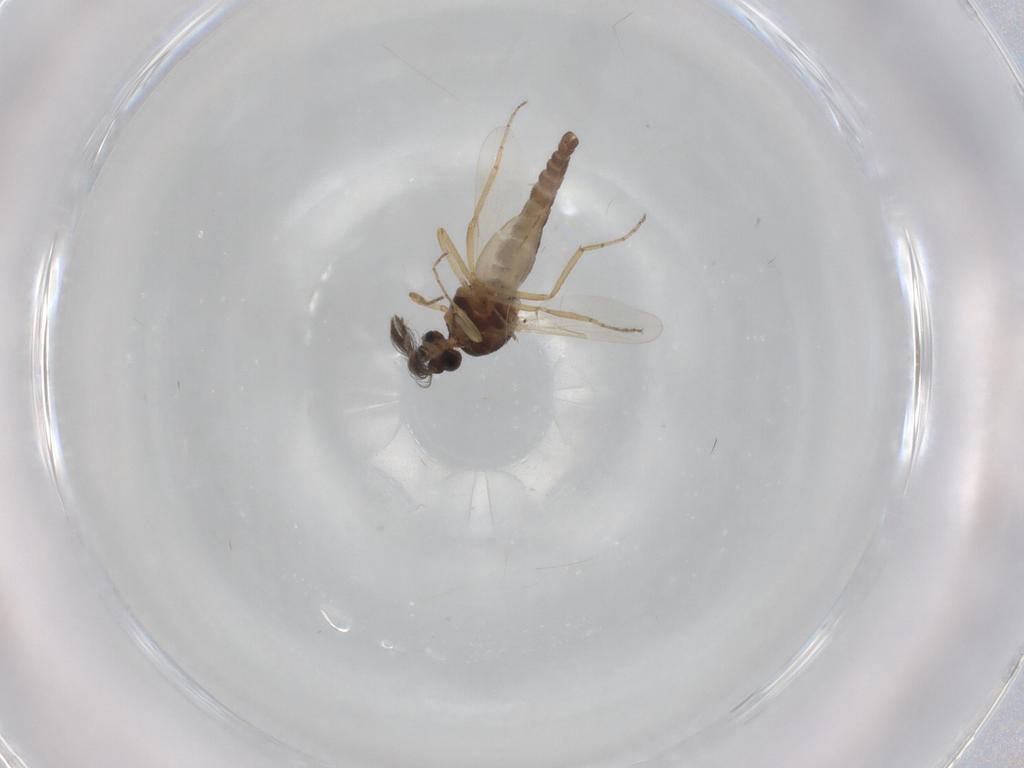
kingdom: Animalia
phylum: Arthropoda
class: Insecta
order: Diptera
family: Ceratopogonidae
